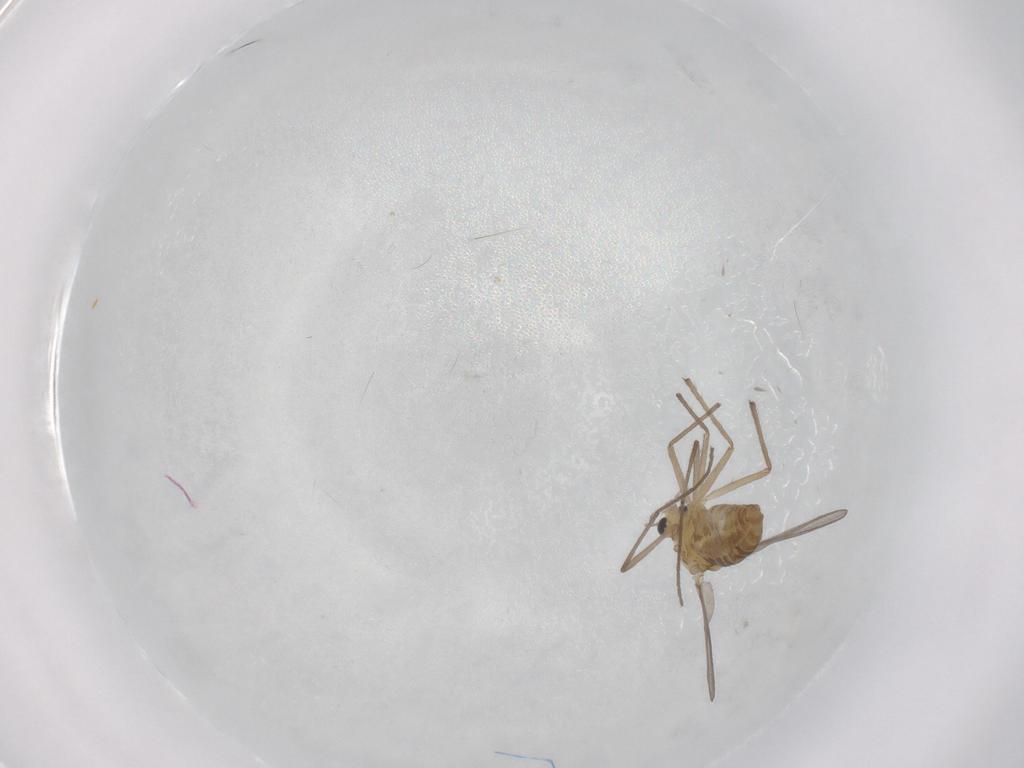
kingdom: Animalia
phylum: Arthropoda
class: Insecta
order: Diptera
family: Chironomidae
